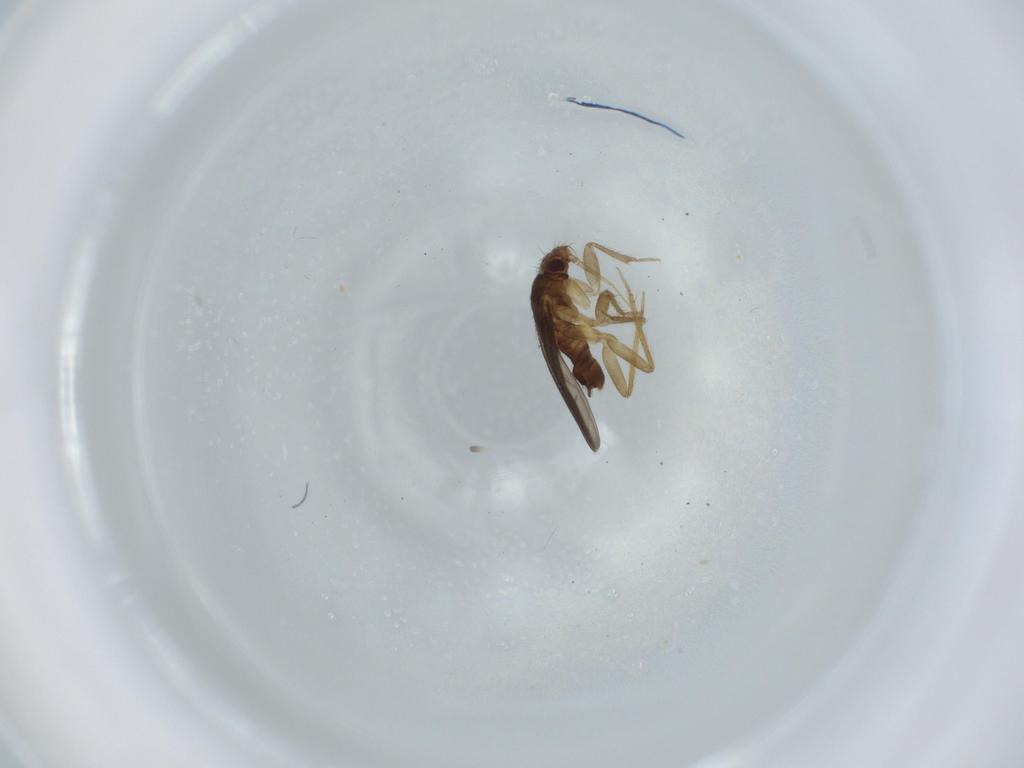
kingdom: Animalia
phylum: Arthropoda
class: Insecta
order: Hemiptera
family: Ceratocombidae
